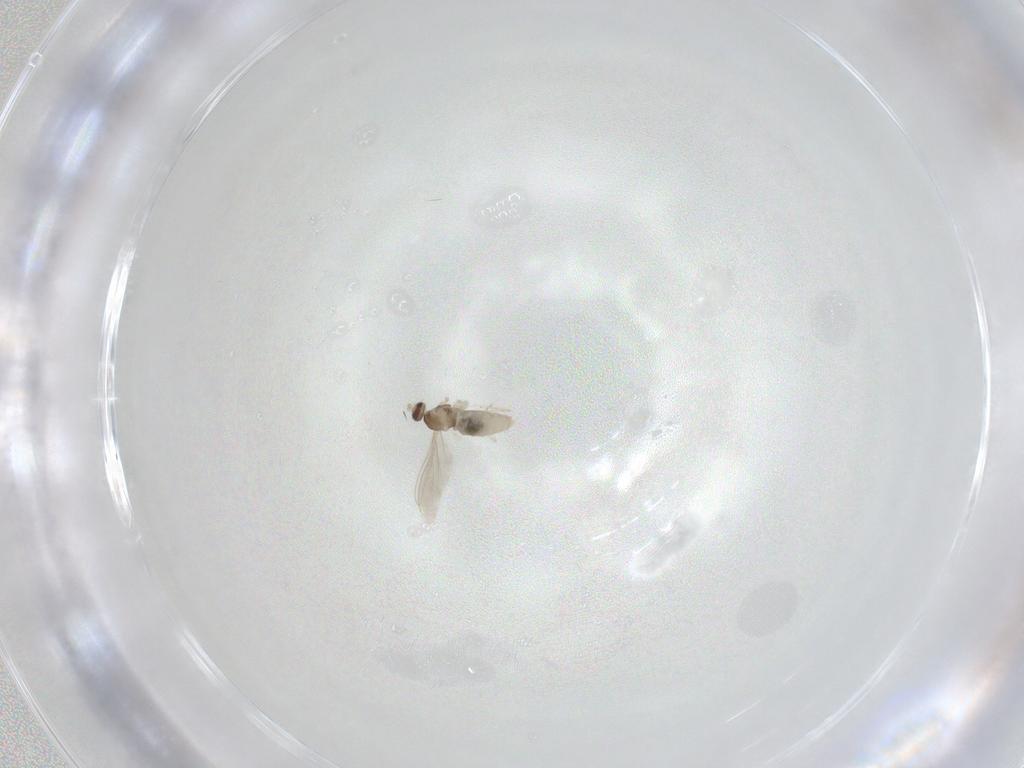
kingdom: Animalia
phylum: Arthropoda
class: Insecta
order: Diptera
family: Cecidomyiidae
